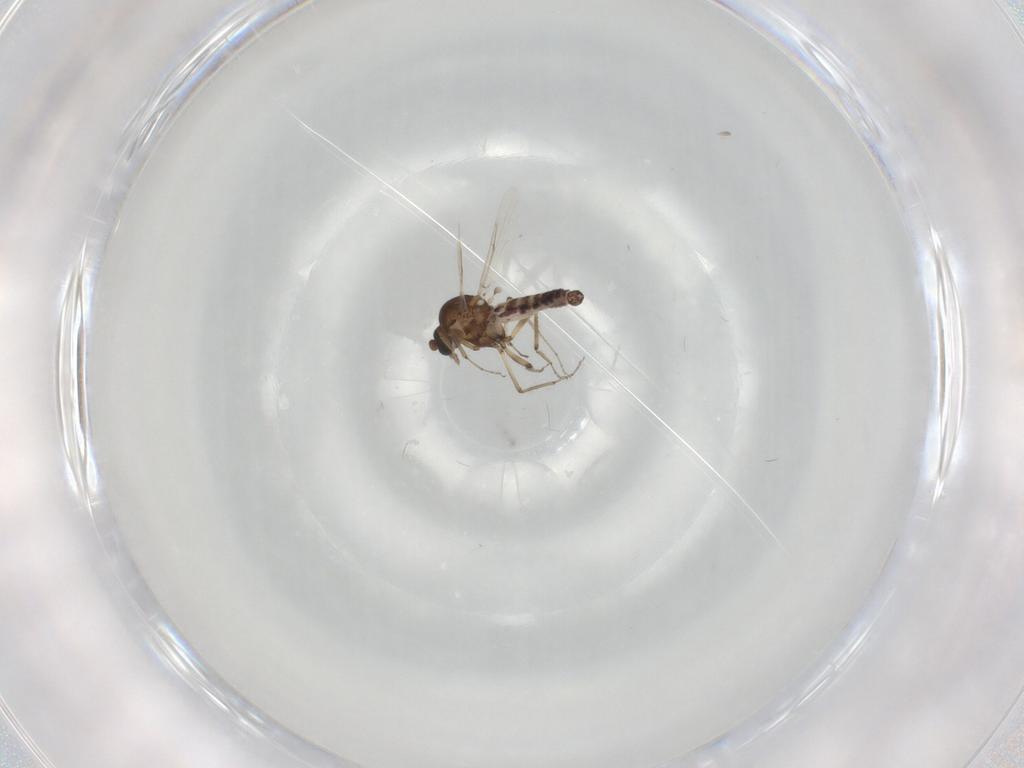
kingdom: Animalia
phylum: Arthropoda
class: Insecta
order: Diptera
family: Ceratopogonidae
